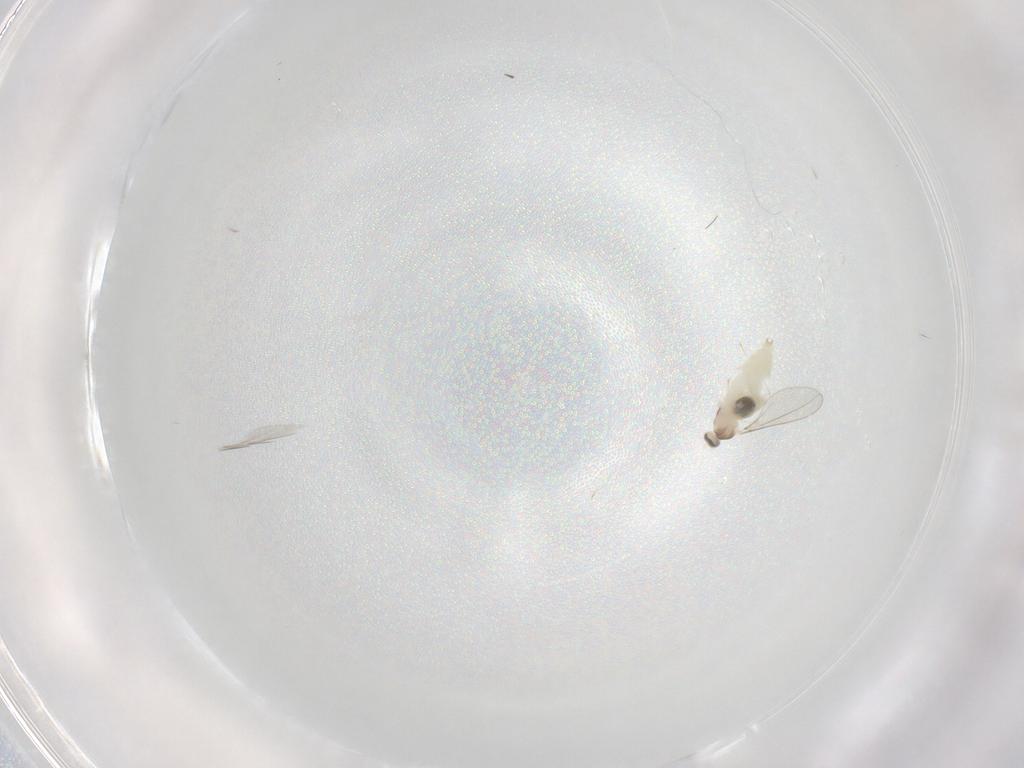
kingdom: Animalia
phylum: Arthropoda
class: Insecta
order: Diptera
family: Cecidomyiidae
